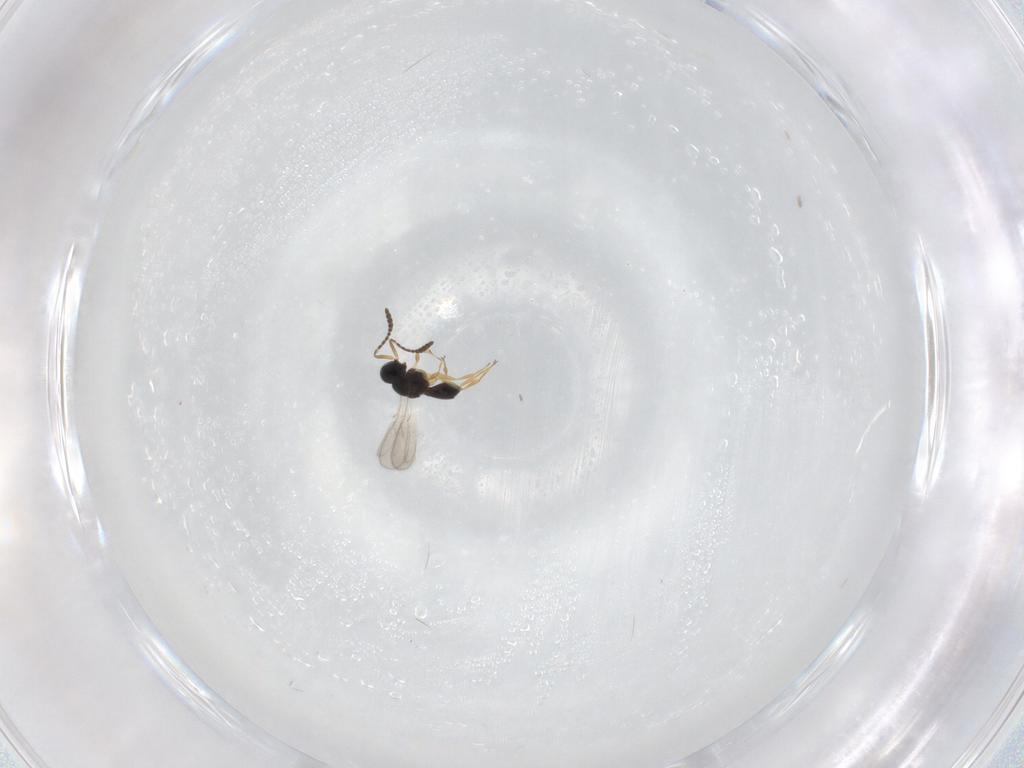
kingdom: Animalia
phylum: Arthropoda
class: Insecta
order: Hymenoptera
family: Scelionidae
